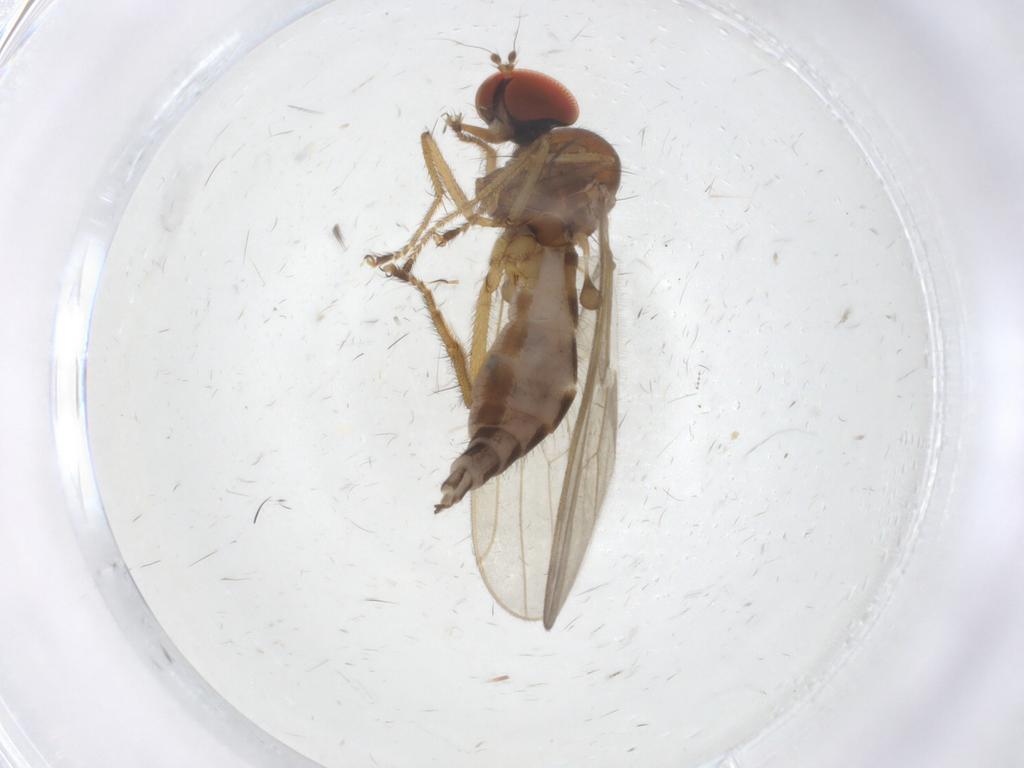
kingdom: Animalia
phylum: Arthropoda
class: Insecta
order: Diptera
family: Hybotidae
